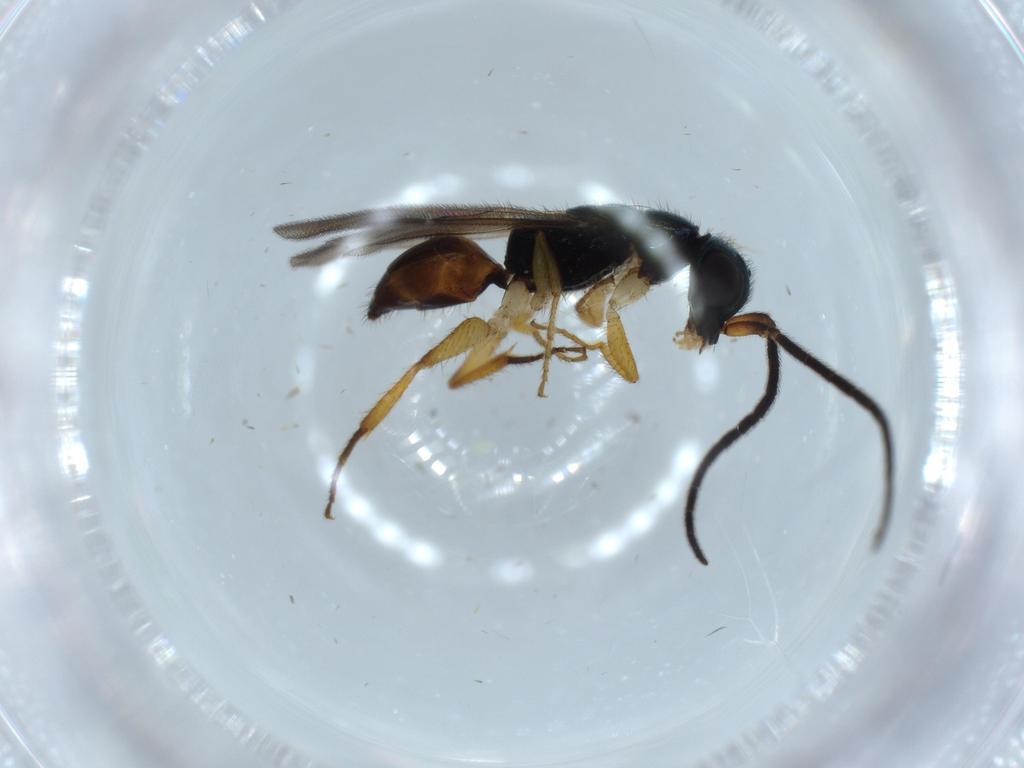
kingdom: Animalia
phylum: Arthropoda
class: Insecta
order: Hymenoptera
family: Chrysididae
